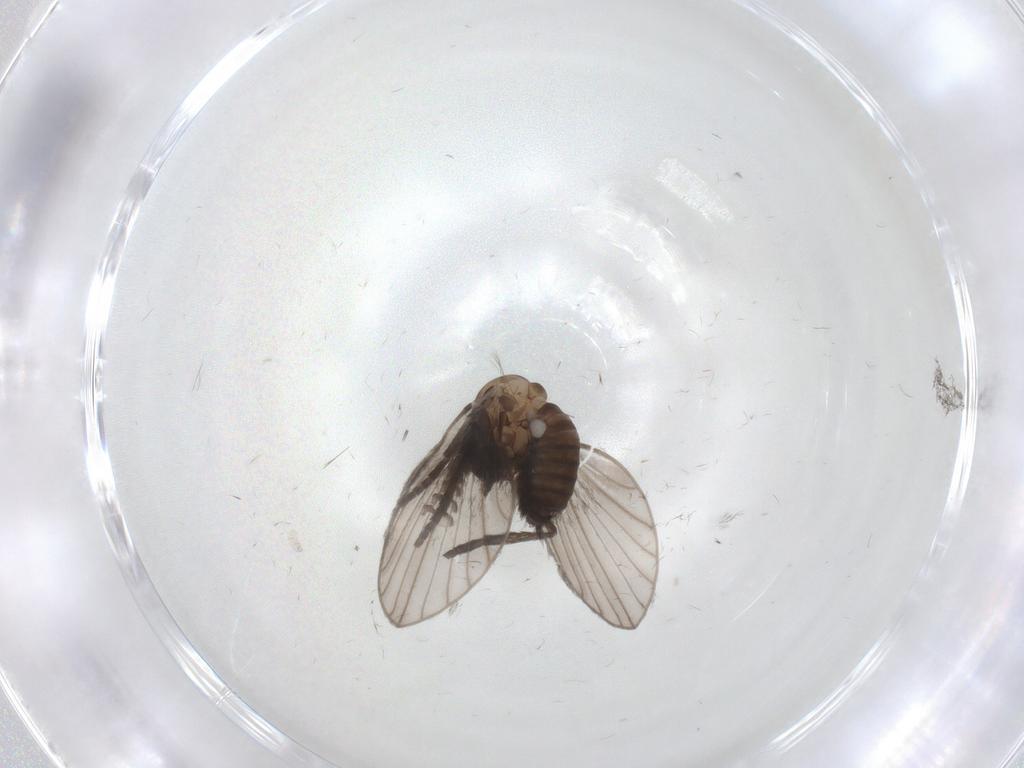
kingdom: Animalia
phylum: Arthropoda
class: Insecta
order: Diptera
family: Psychodidae
